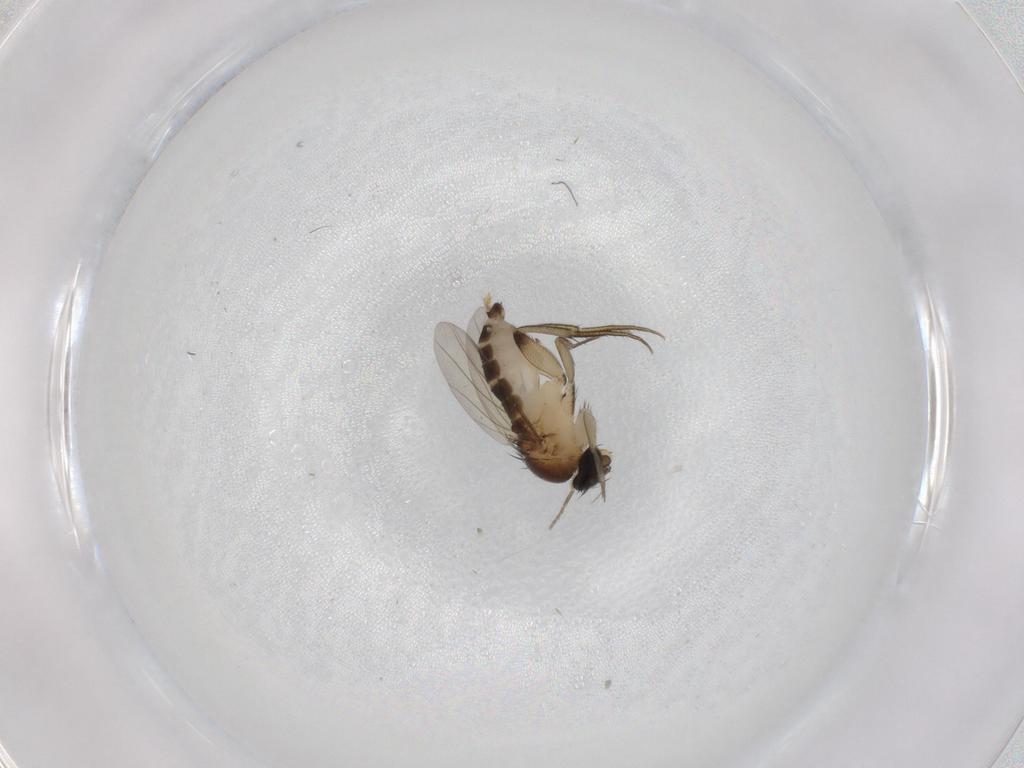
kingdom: Animalia
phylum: Arthropoda
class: Insecta
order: Diptera
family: Phoridae
